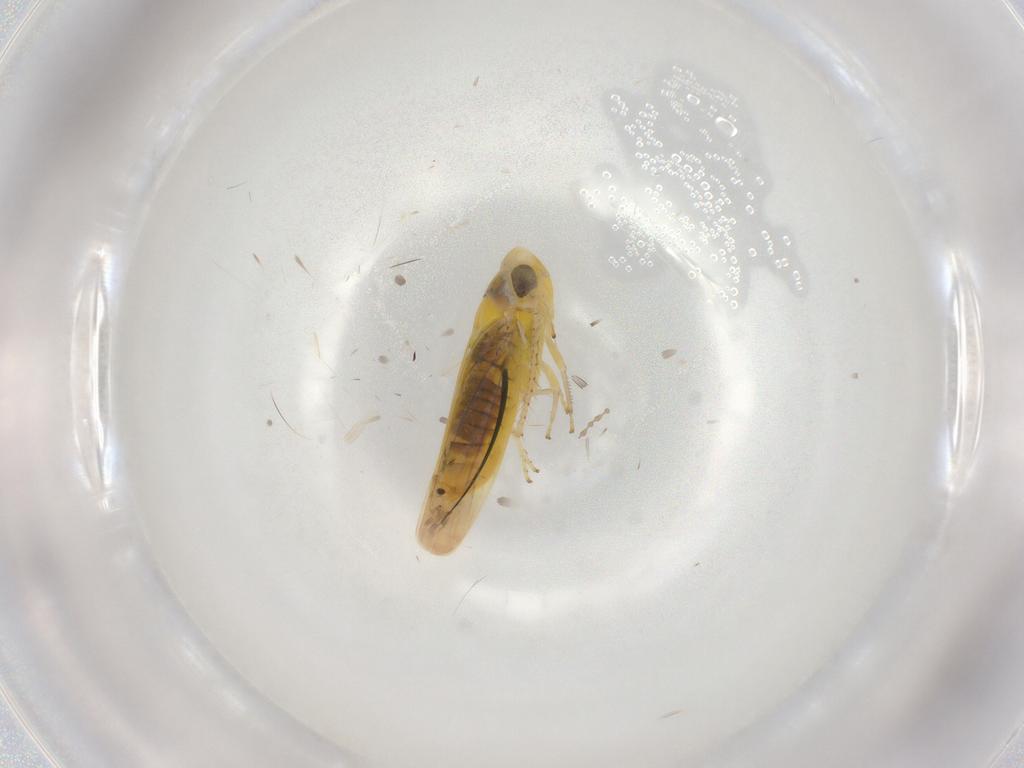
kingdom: Animalia
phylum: Arthropoda
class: Insecta
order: Hemiptera
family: Cicadellidae
